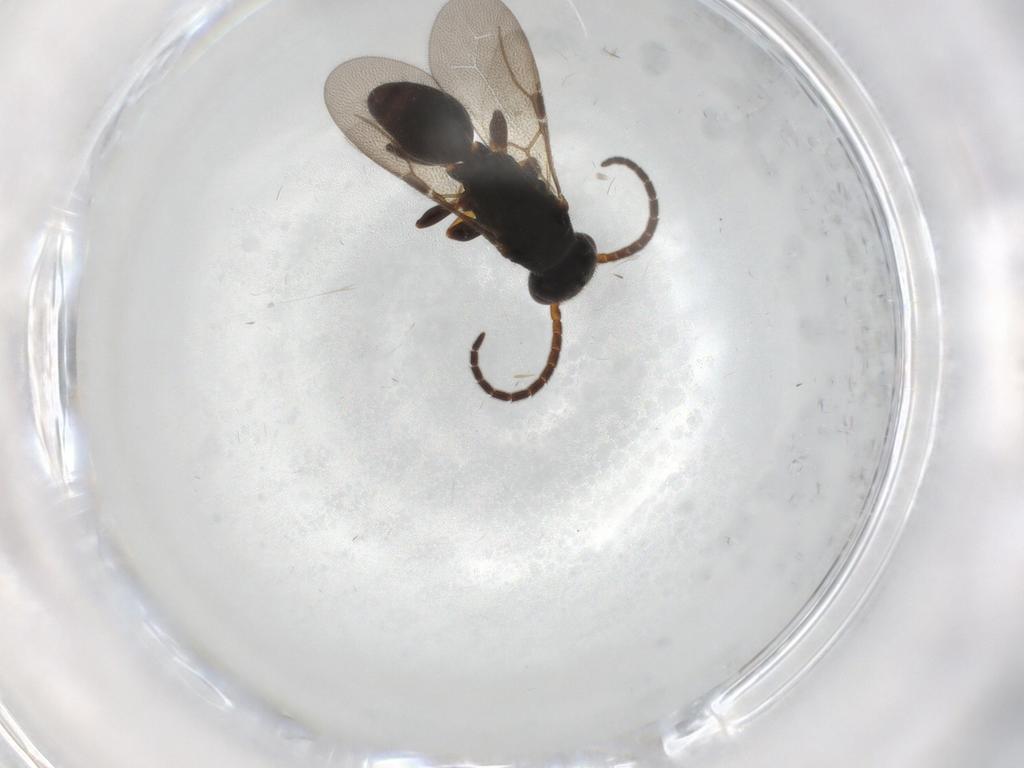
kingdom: Animalia
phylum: Arthropoda
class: Insecta
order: Hymenoptera
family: Bethylidae
